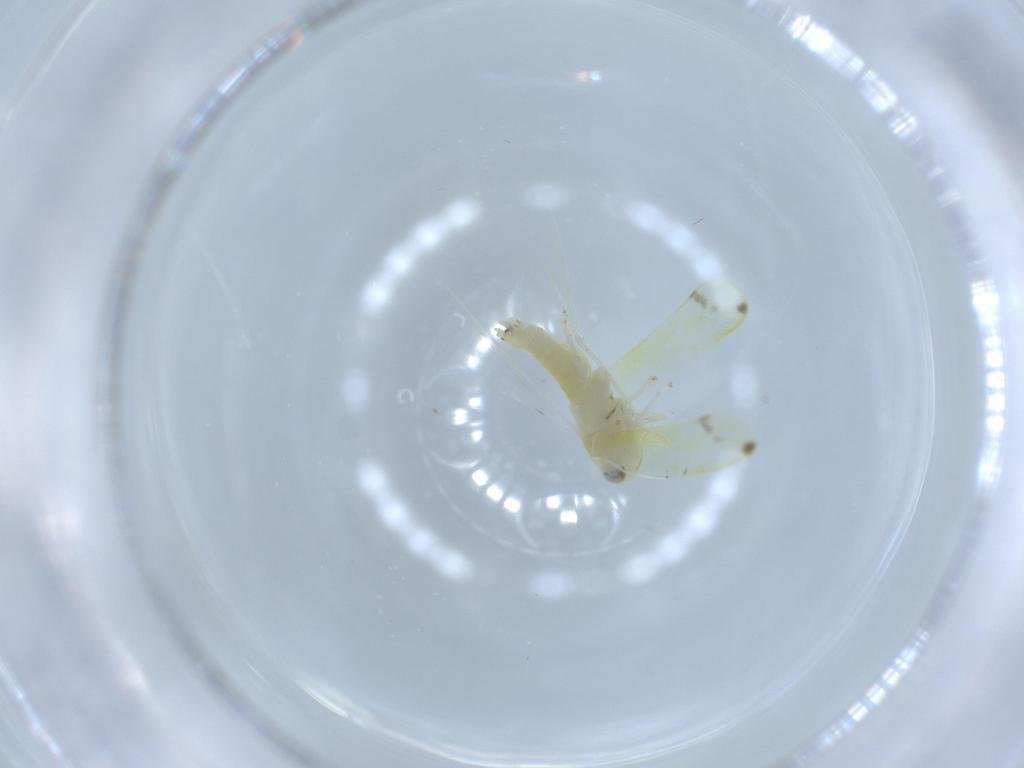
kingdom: Animalia
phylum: Arthropoda
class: Insecta
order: Hemiptera
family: Cicadellidae
